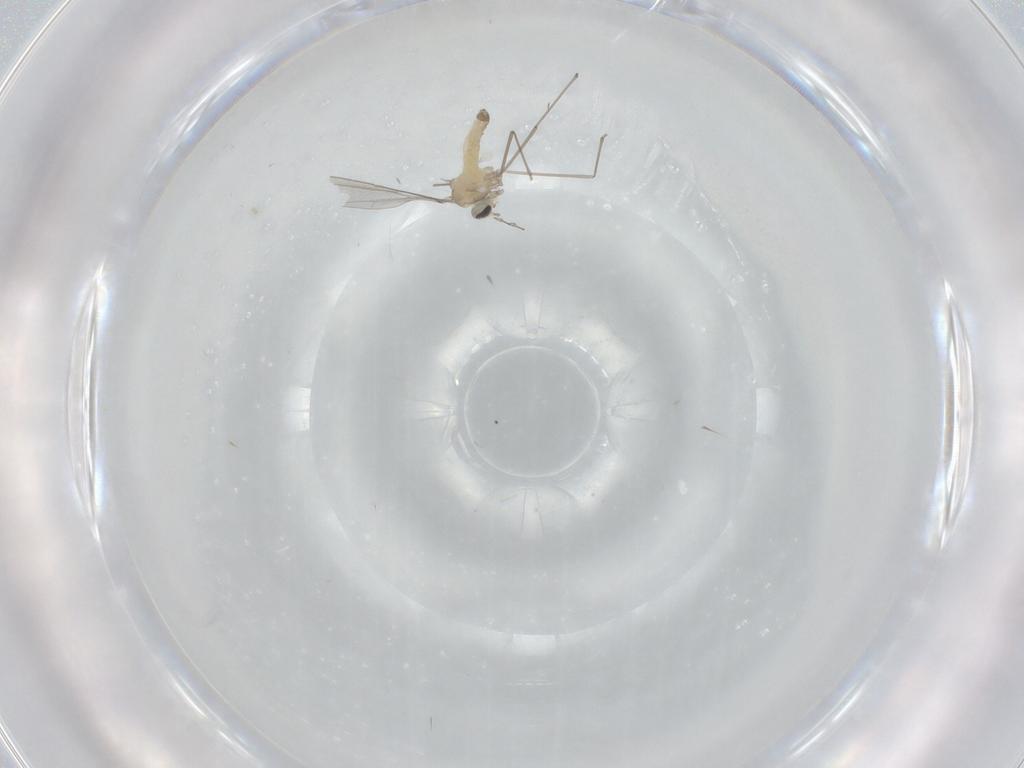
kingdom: Animalia
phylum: Arthropoda
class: Insecta
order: Diptera
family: Cecidomyiidae
